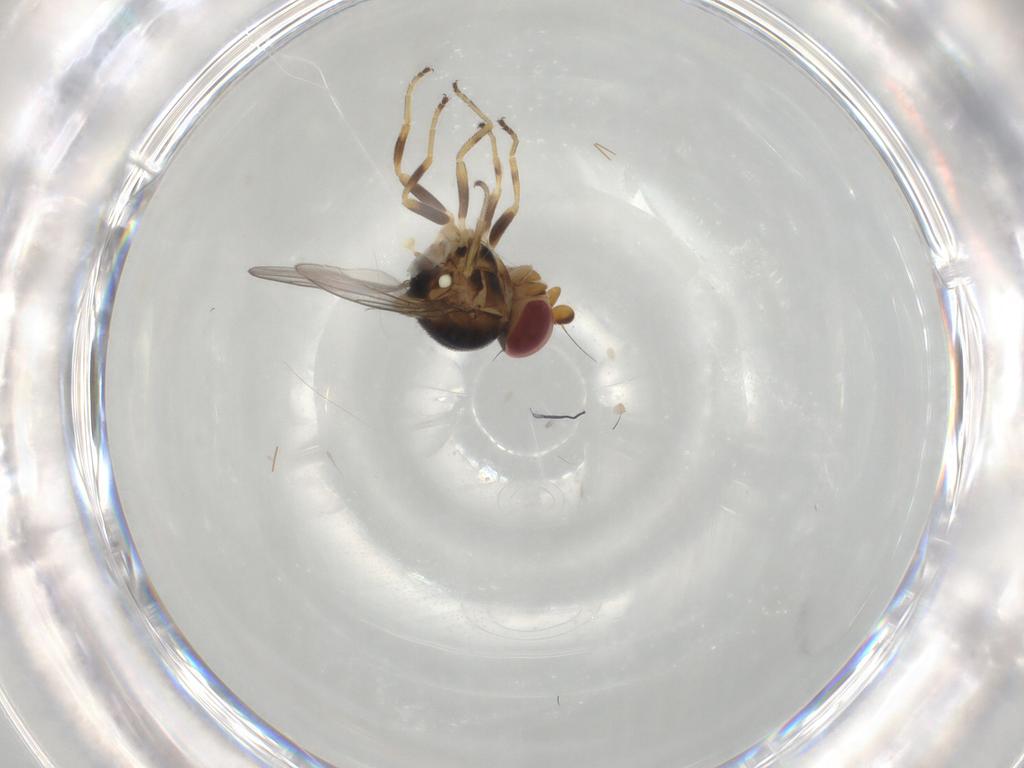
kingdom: Animalia
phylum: Arthropoda
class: Insecta
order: Diptera
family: Chloropidae
